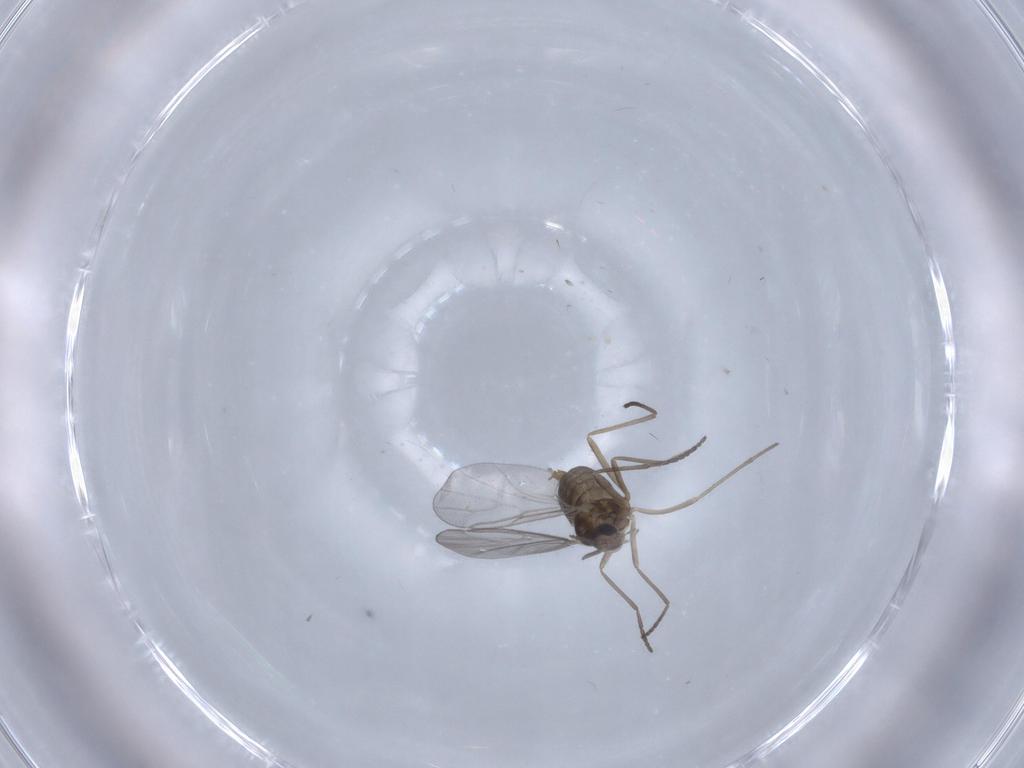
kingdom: Animalia
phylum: Arthropoda
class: Insecta
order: Diptera
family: Cecidomyiidae
